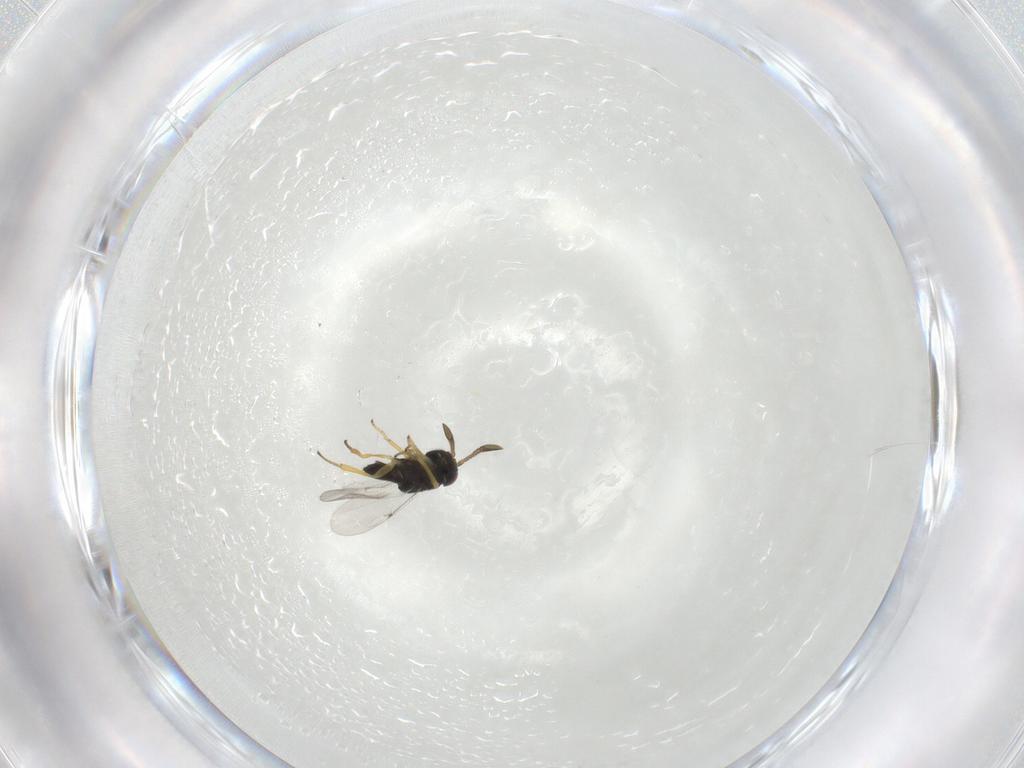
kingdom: Animalia
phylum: Arthropoda
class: Insecta
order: Hymenoptera
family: Encyrtidae
